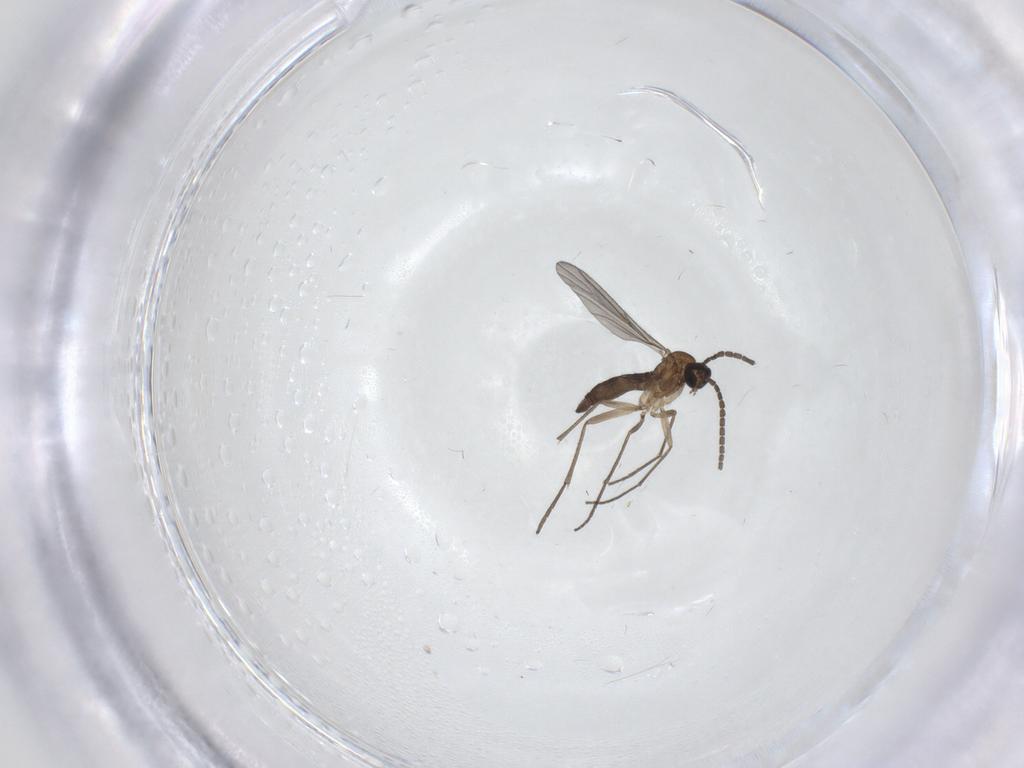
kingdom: Animalia
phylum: Arthropoda
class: Insecta
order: Diptera
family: Sciaridae
